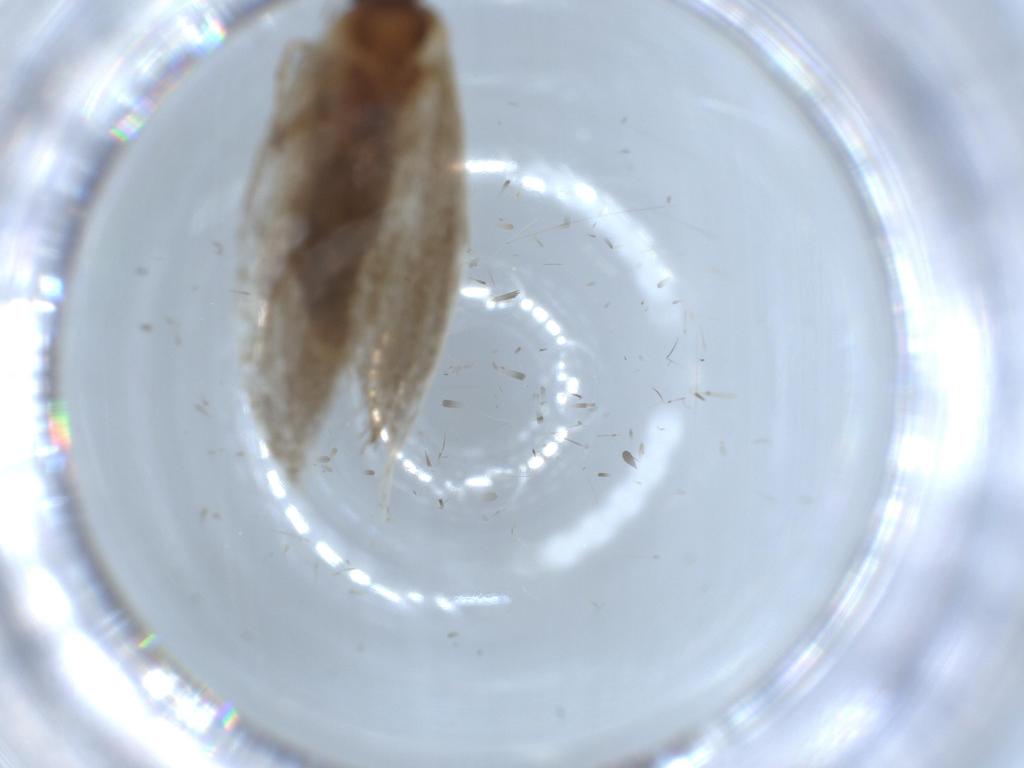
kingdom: Animalia
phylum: Arthropoda
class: Insecta
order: Lepidoptera
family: Oecophoridae
